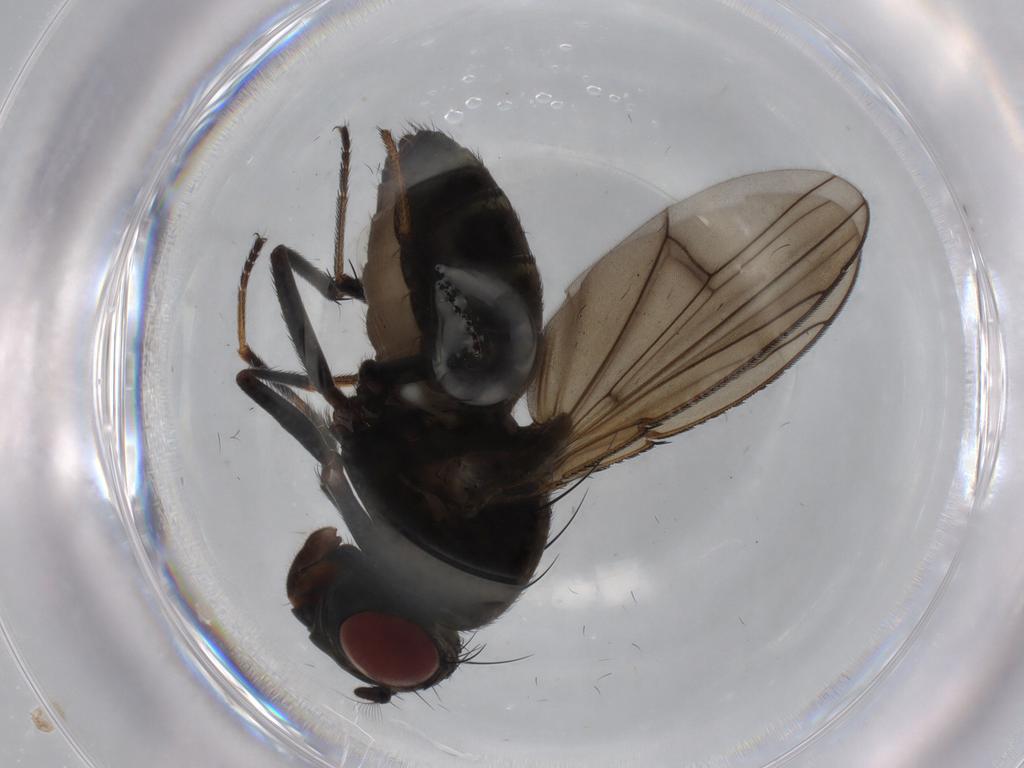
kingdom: Animalia
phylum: Arthropoda
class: Insecta
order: Diptera
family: Ephydridae
